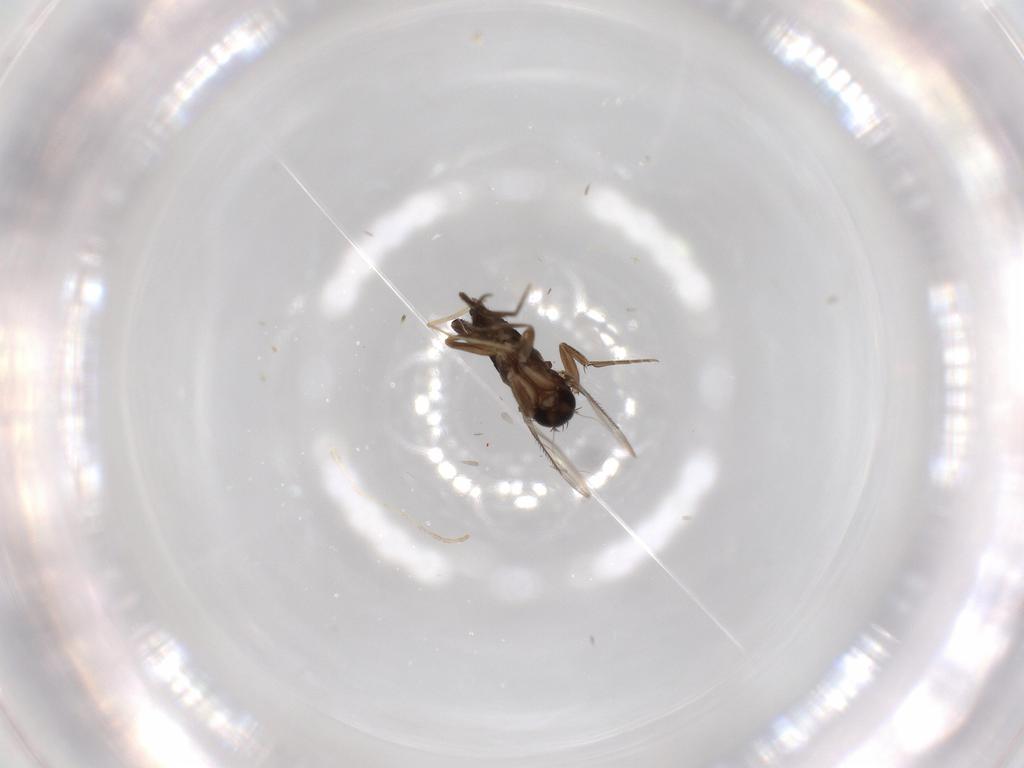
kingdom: Animalia
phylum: Arthropoda
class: Insecta
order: Diptera
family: Phoridae
